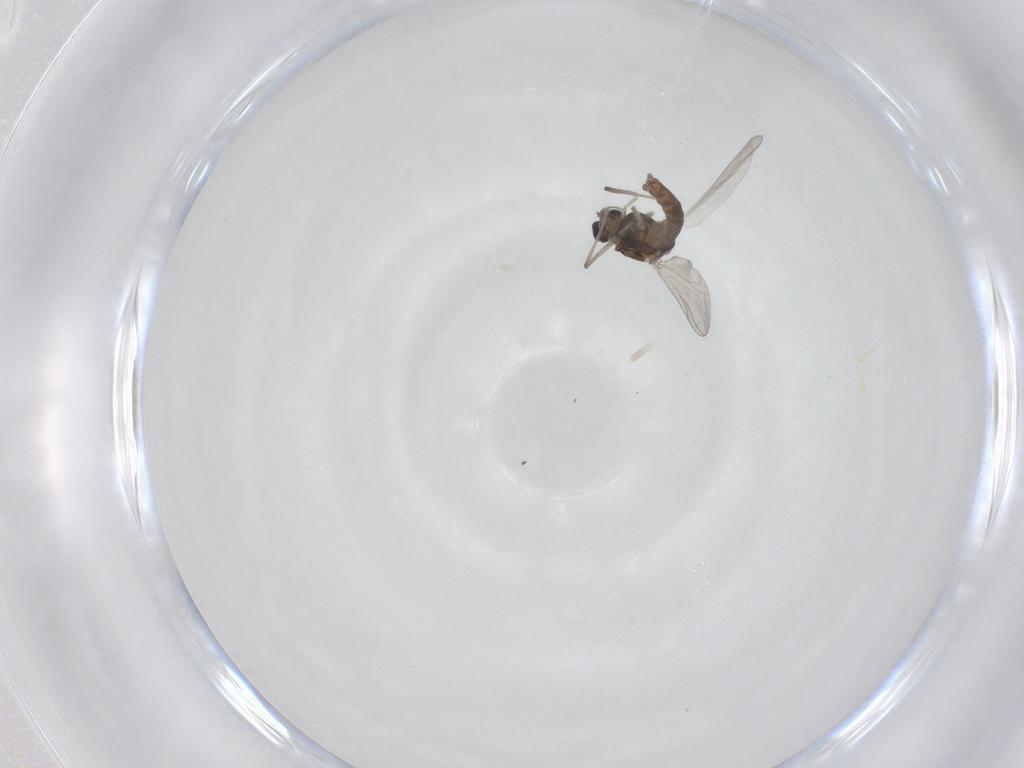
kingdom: Animalia
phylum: Arthropoda
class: Insecta
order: Diptera
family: Chironomidae
